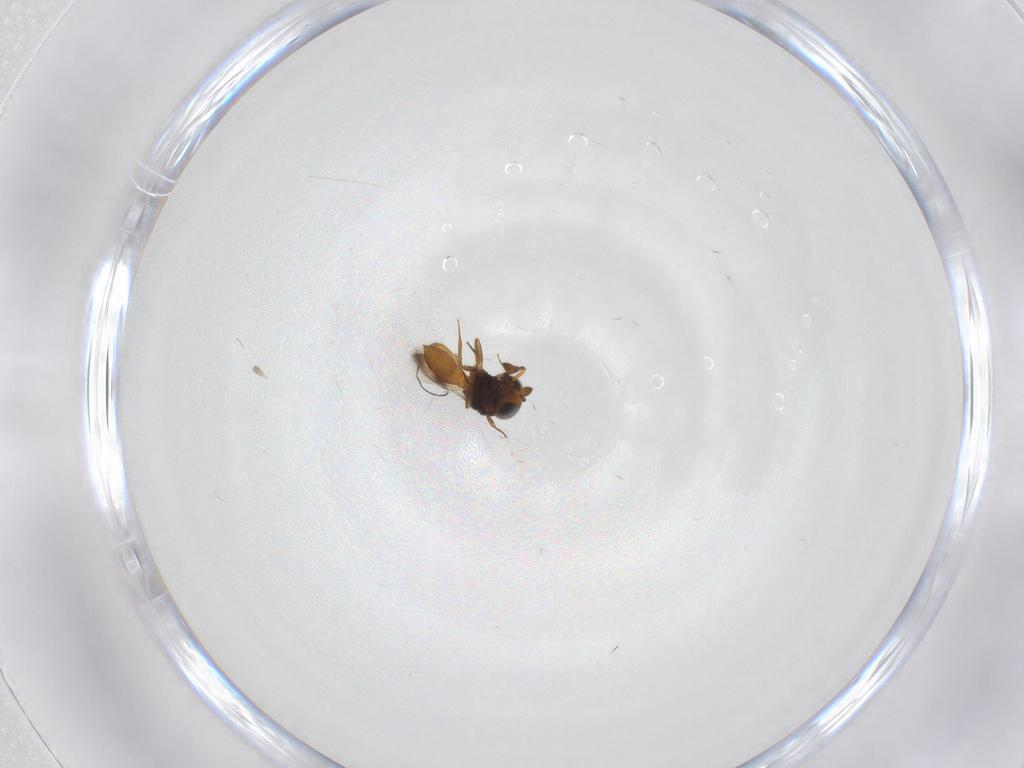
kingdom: Animalia
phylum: Arthropoda
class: Insecta
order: Hymenoptera
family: Scelionidae
